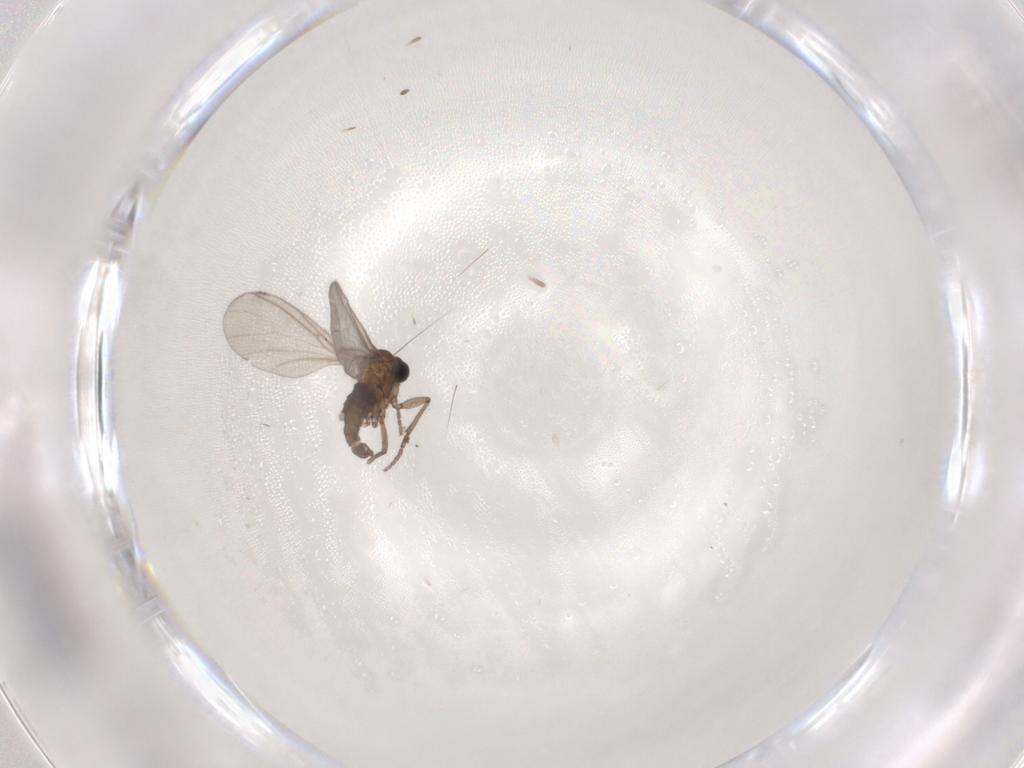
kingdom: Animalia
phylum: Arthropoda
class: Insecta
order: Diptera
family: Sciaridae
